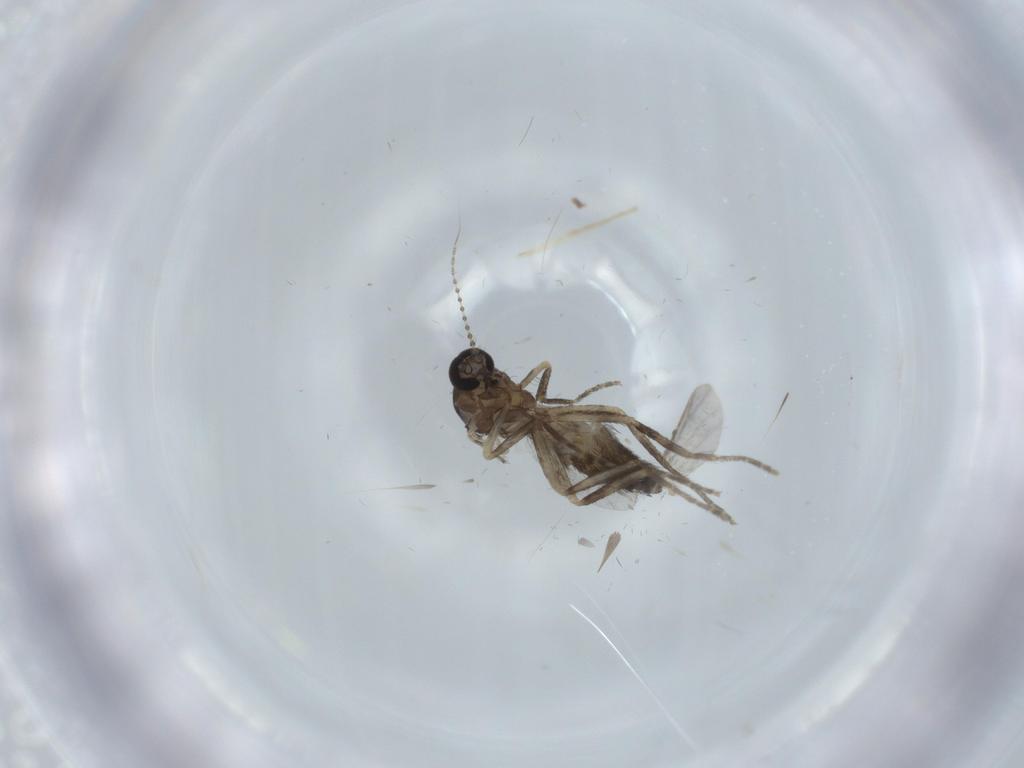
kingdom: Animalia
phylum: Arthropoda
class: Insecta
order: Diptera
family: Ceratopogonidae
